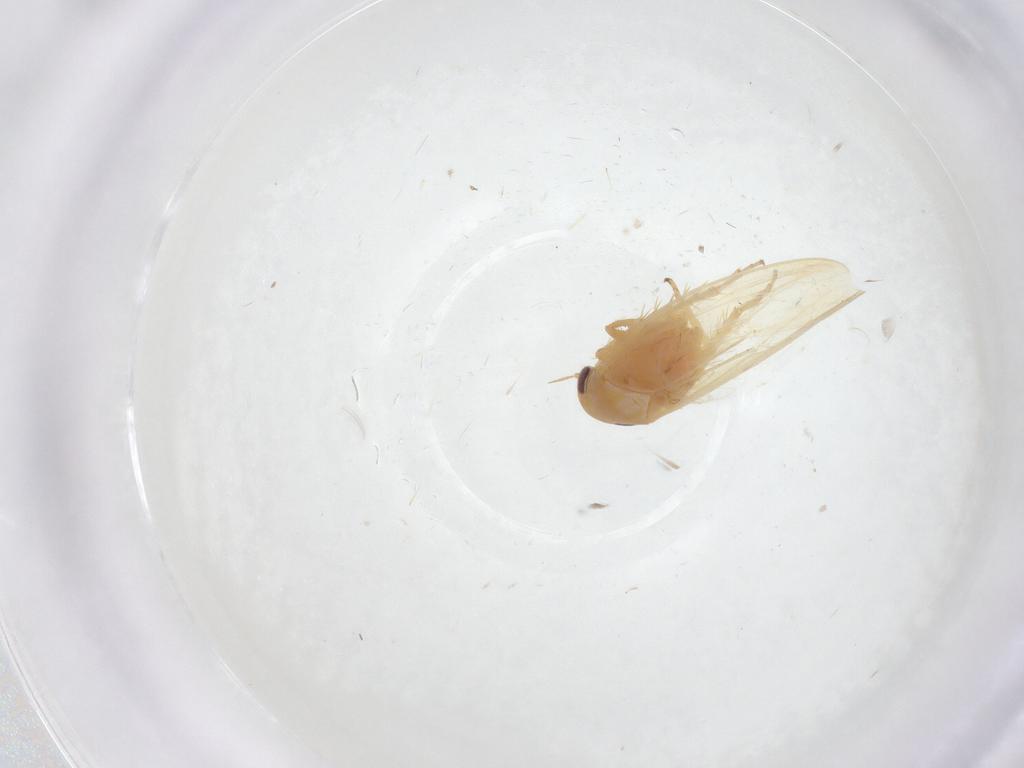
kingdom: Animalia
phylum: Arthropoda
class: Insecta
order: Hemiptera
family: Cicadellidae
